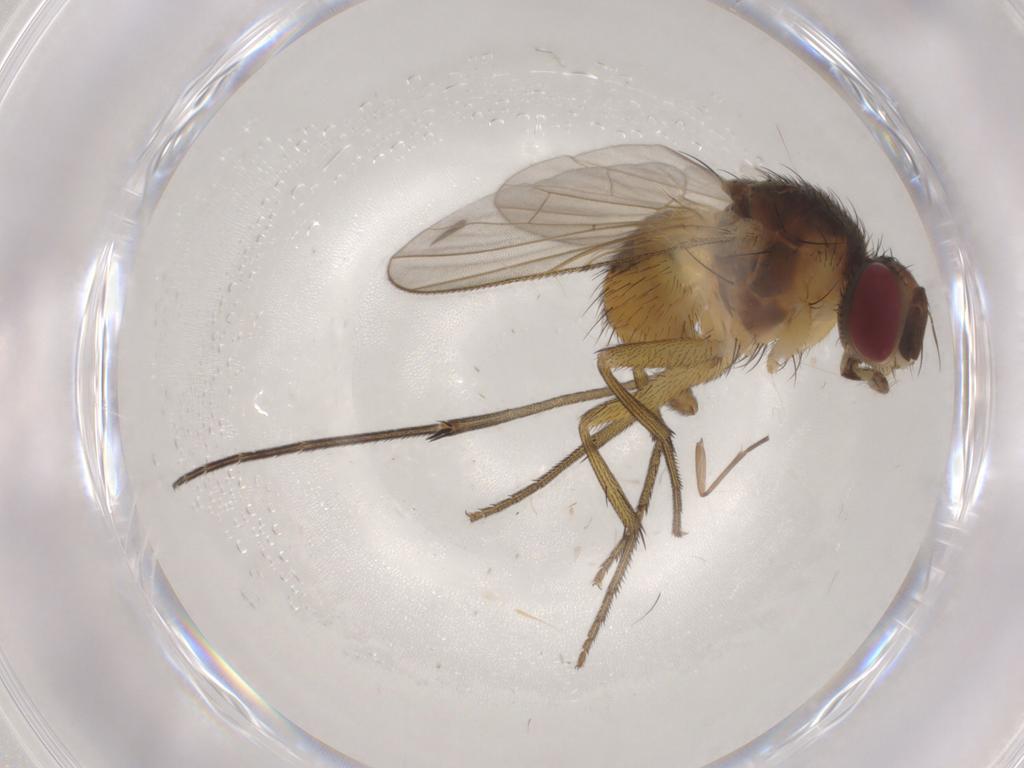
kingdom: Animalia
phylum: Arthropoda
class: Insecta
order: Diptera
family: Muscidae
